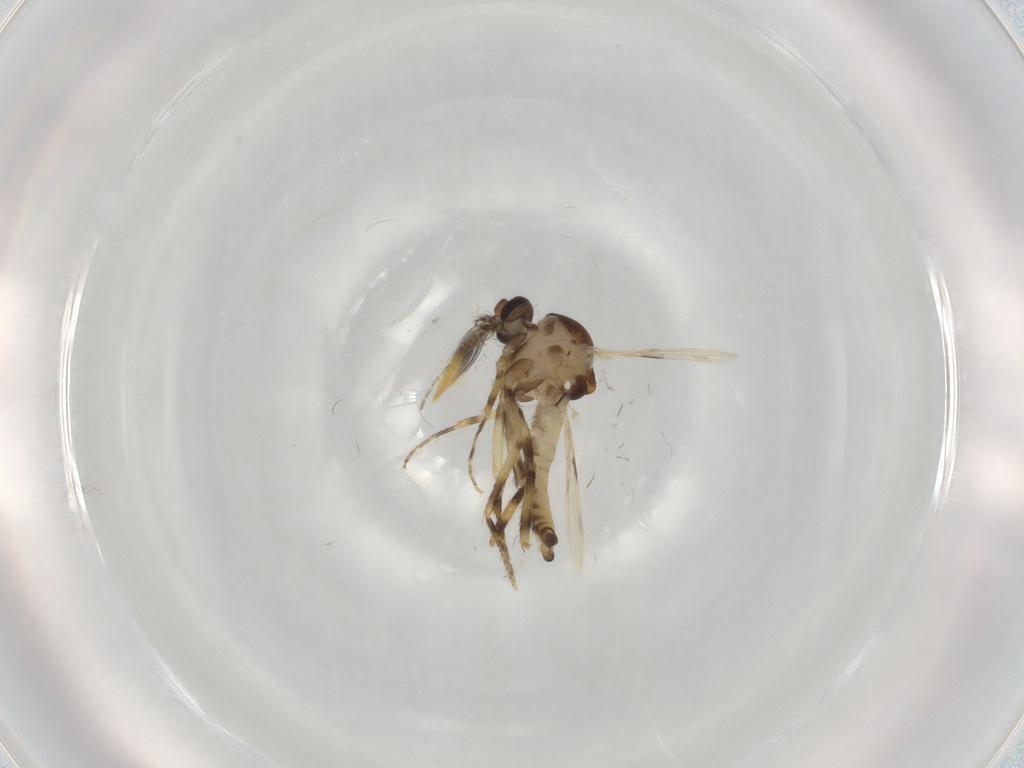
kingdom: Animalia
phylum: Arthropoda
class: Insecta
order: Diptera
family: Ceratopogonidae
